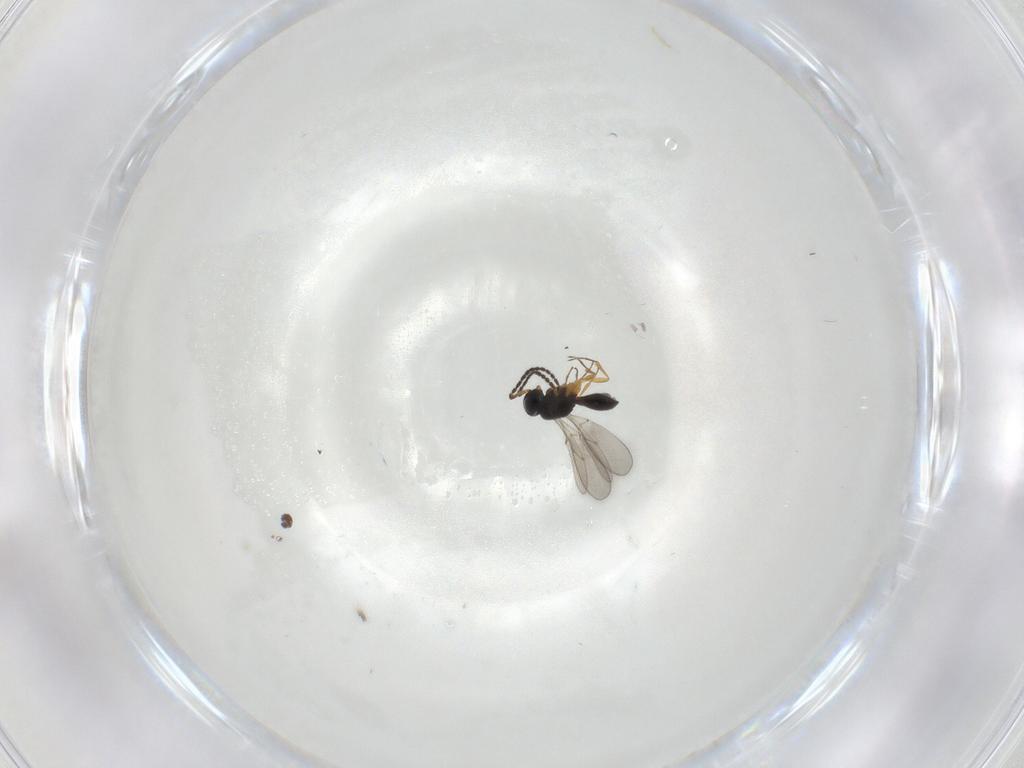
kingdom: Animalia
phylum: Arthropoda
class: Insecta
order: Hymenoptera
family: Scelionidae
